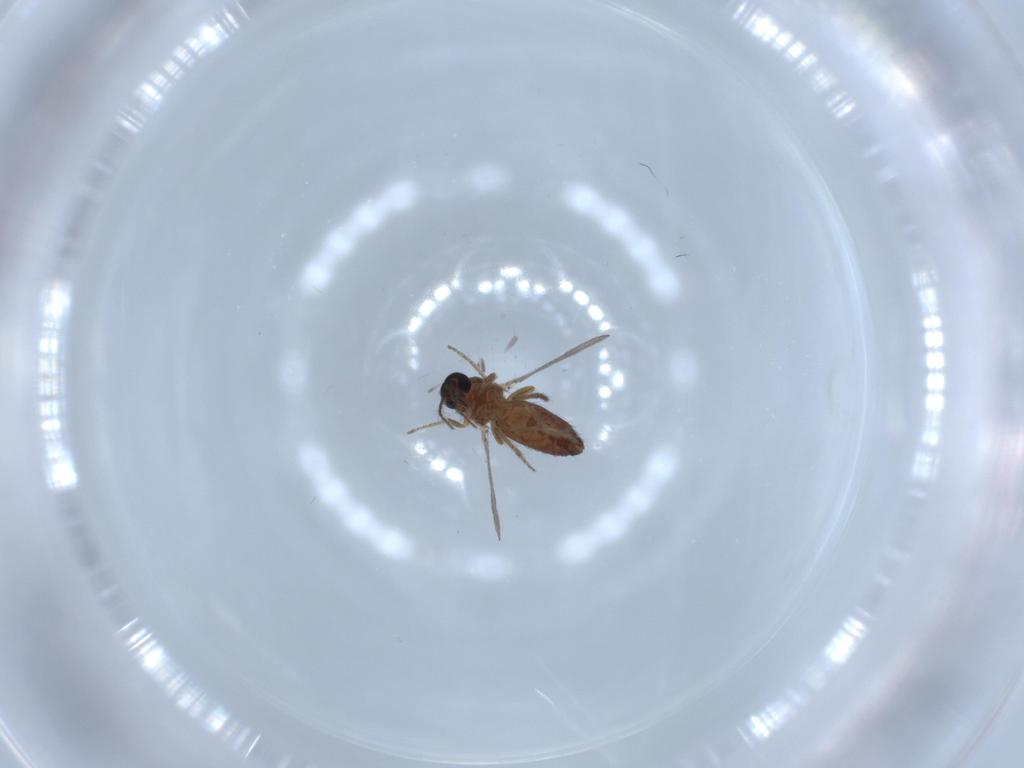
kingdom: Animalia
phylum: Arthropoda
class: Insecta
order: Diptera
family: Ceratopogonidae
